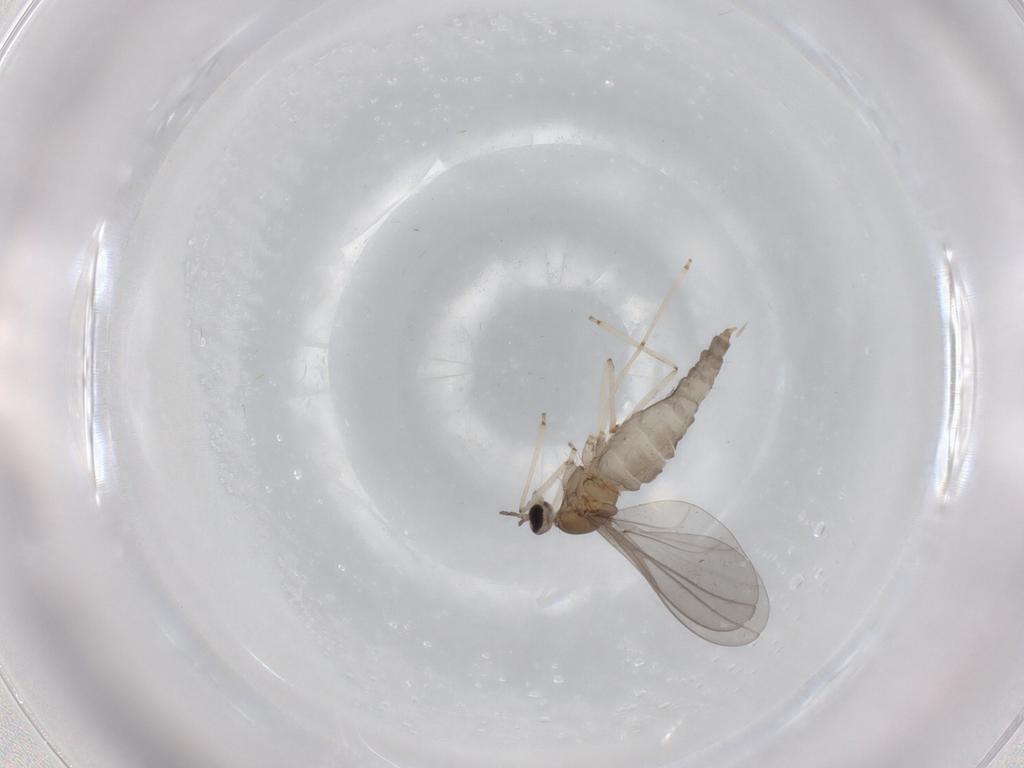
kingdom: Animalia
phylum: Arthropoda
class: Insecta
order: Diptera
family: Cecidomyiidae
